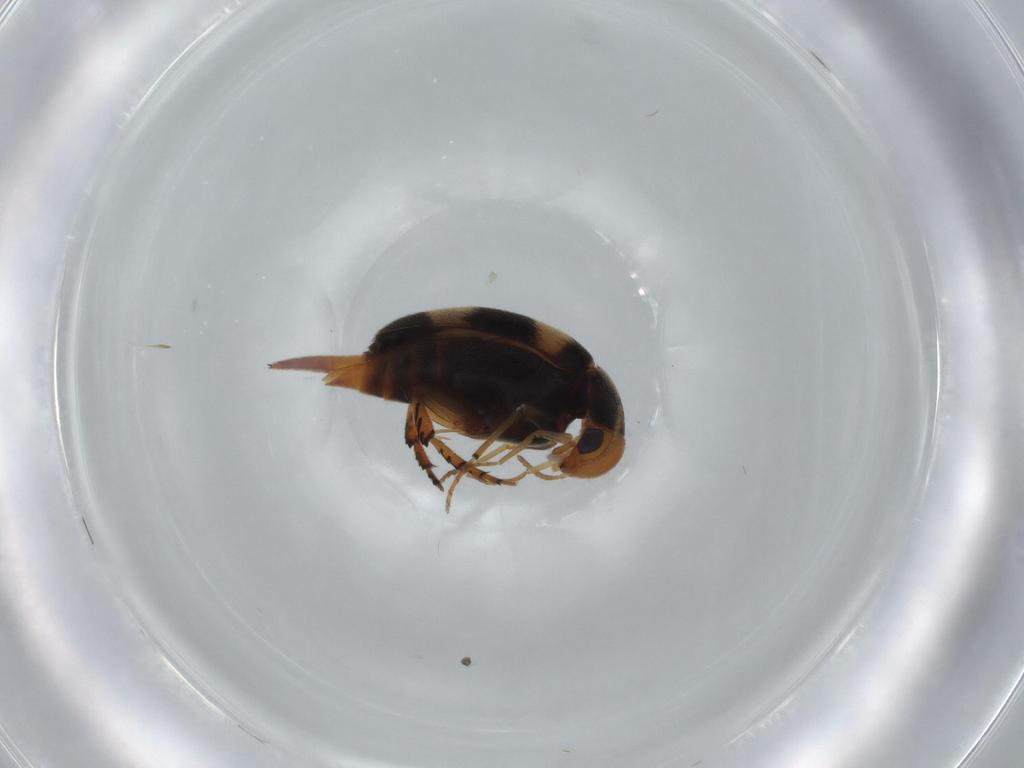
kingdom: Animalia
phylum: Arthropoda
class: Insecta
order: Coleoptera
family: Mordellidae
